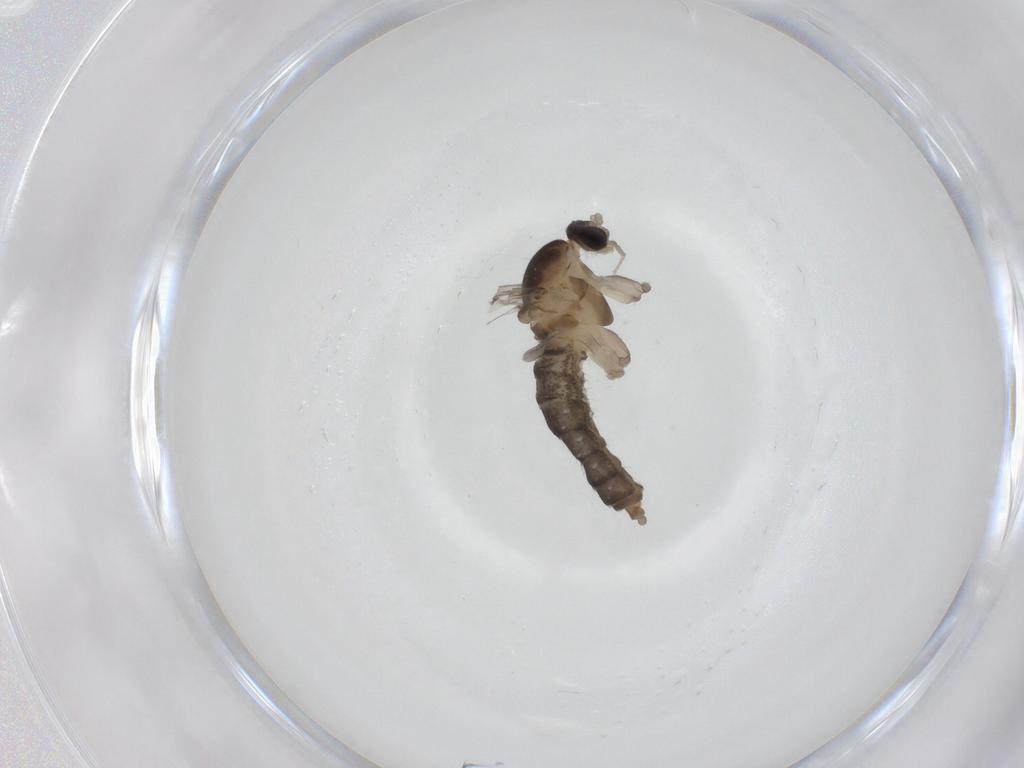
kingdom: Animalia
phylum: Arthropoda
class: Insecta
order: Diptera
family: Cecidomyiidae
